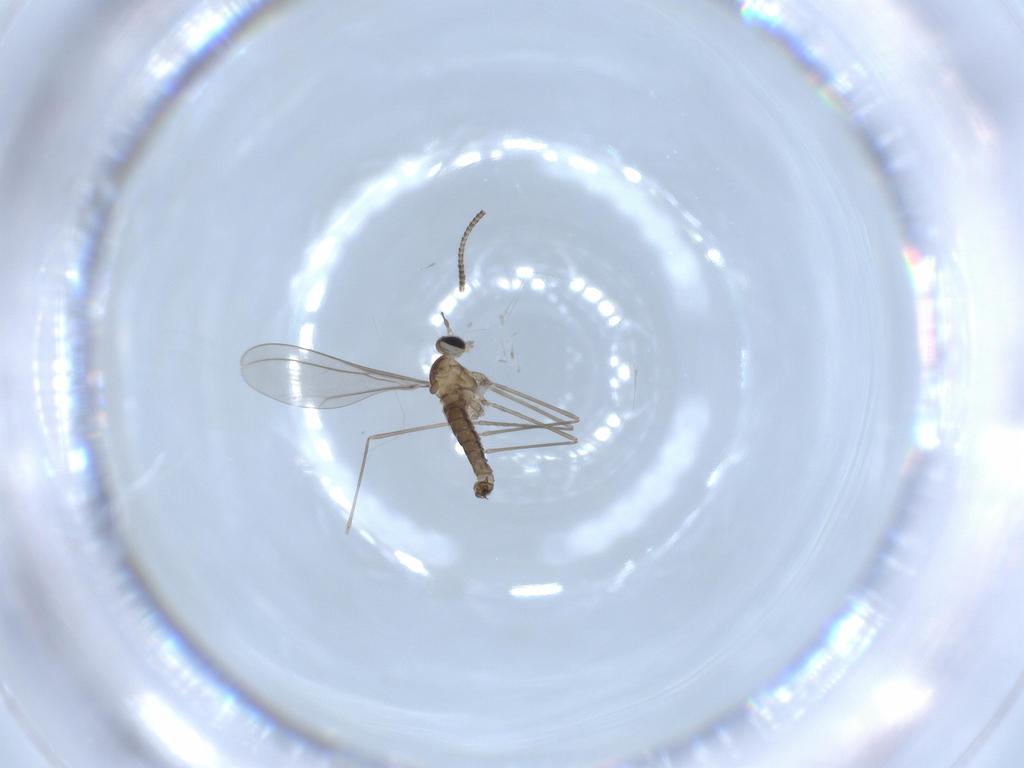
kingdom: Animalia
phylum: Arthropoda
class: Insecta
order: Diptera
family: Cecidomyiidae
